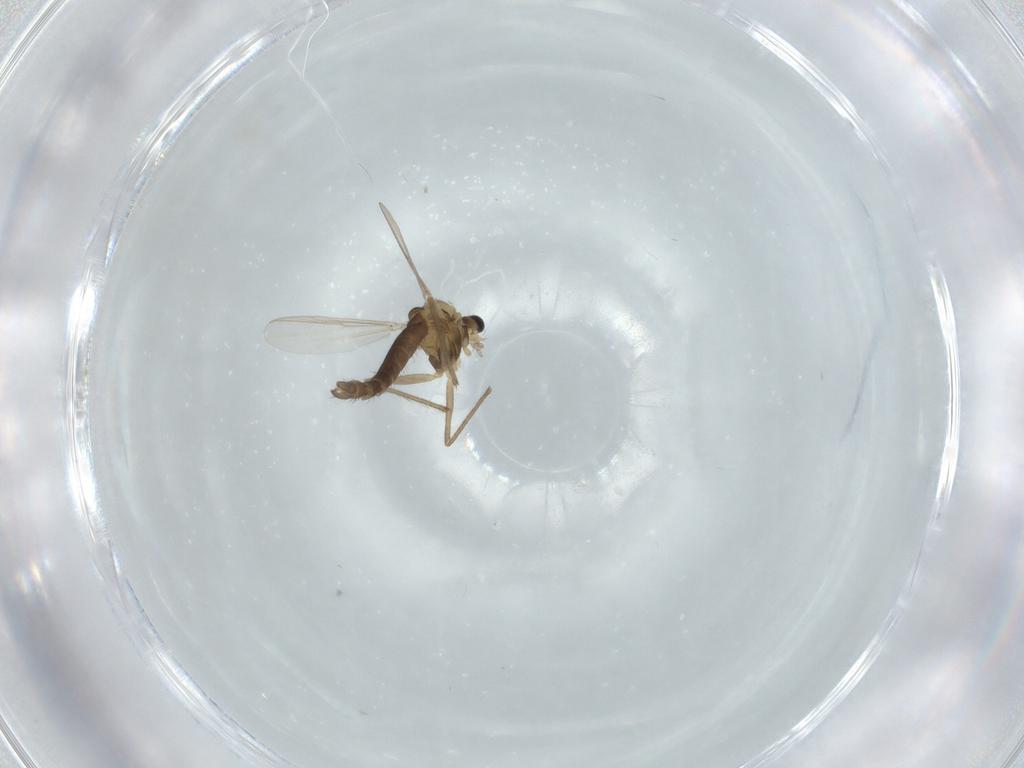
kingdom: Animalia
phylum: Arthropoda
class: Insecta
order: Diptera
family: Chironomidae
